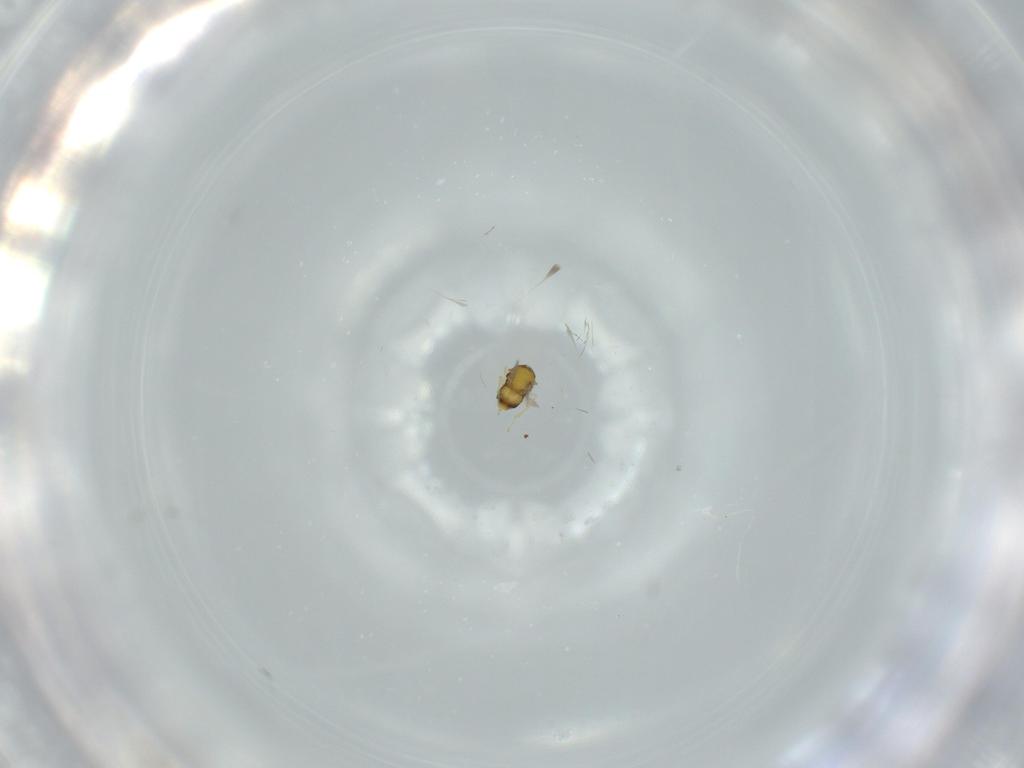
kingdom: Animalia
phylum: Arthropoda
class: Insecta
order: Hymenoptera
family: Aphelinidae
